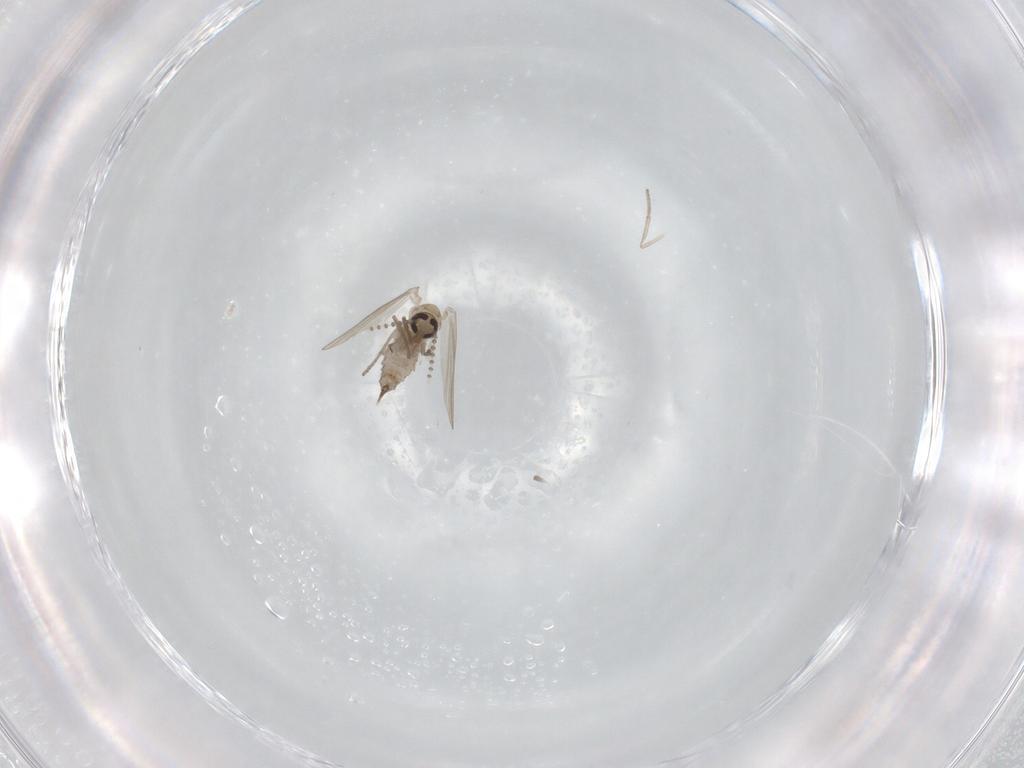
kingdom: Animalia
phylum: Arthropoda
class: Insecta
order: Diptera
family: Psychodidae
